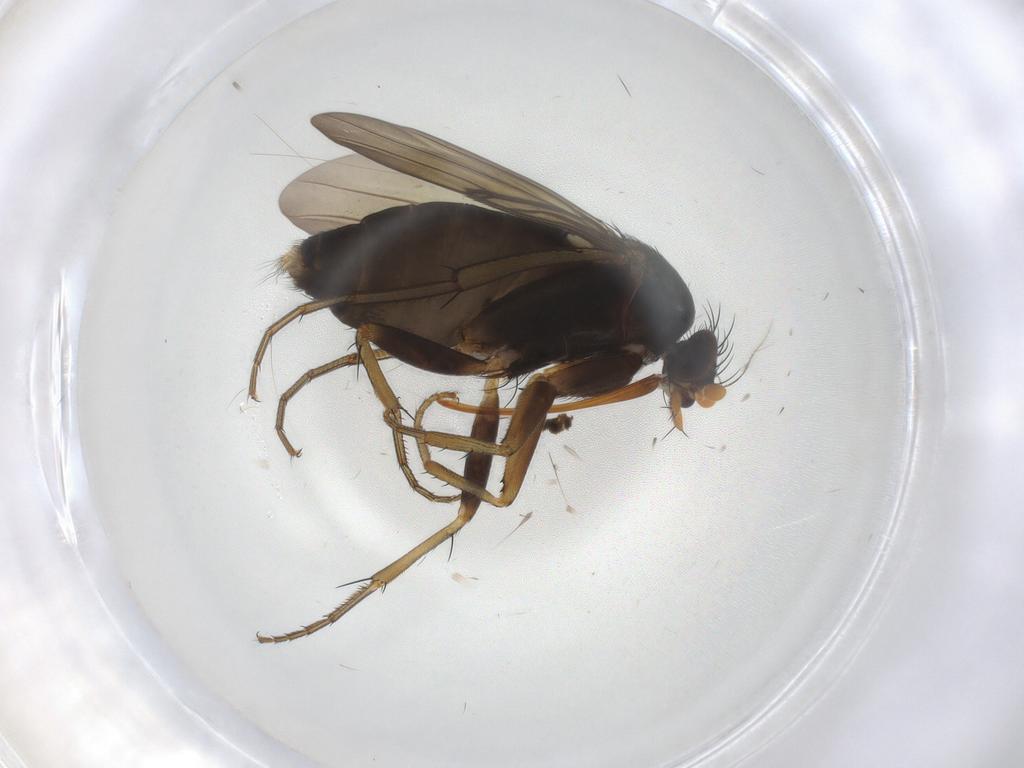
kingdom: Animalia
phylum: Arthropoda
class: Insecta
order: Diptera
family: Phoridae
